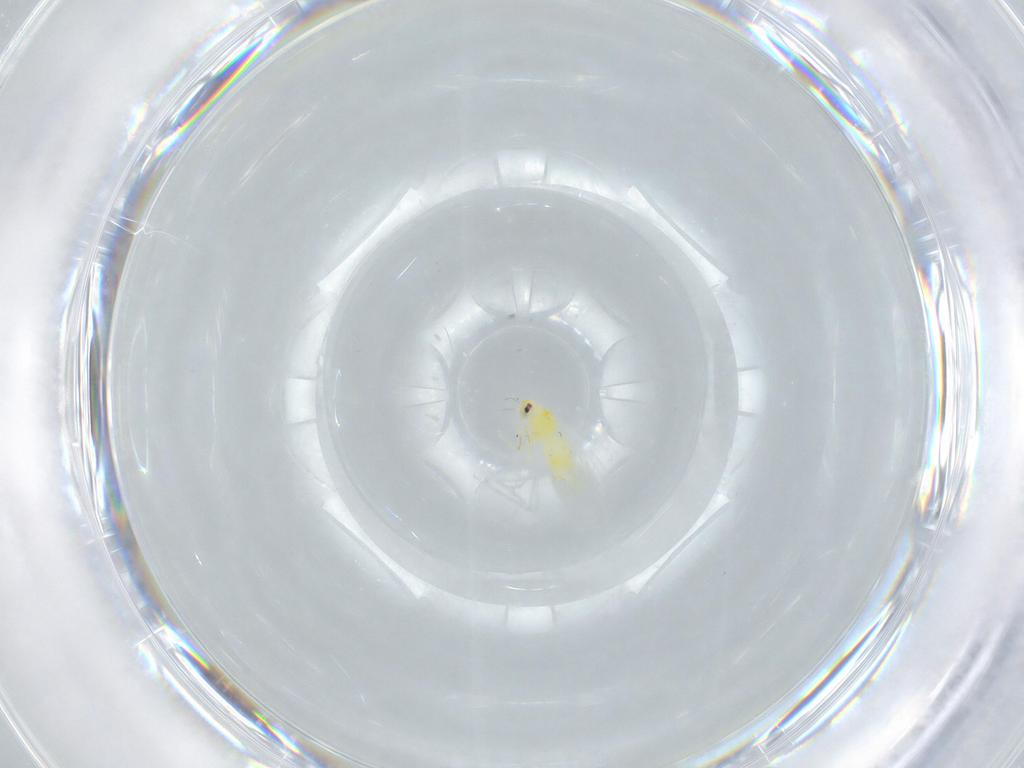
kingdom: Animalia
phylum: Arthropoda
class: Insecta
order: Hemiptera
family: Aleyrodidae
